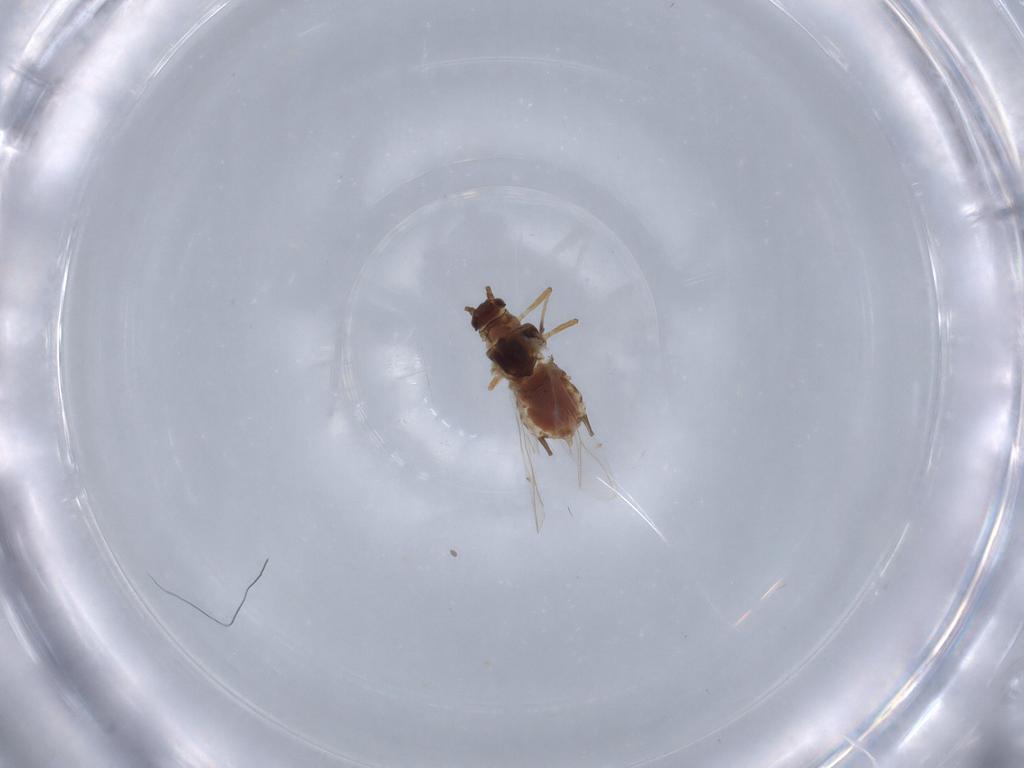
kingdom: Animalia
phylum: Arthropoda
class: Insecta
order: Hemiptera
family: Aphididae
